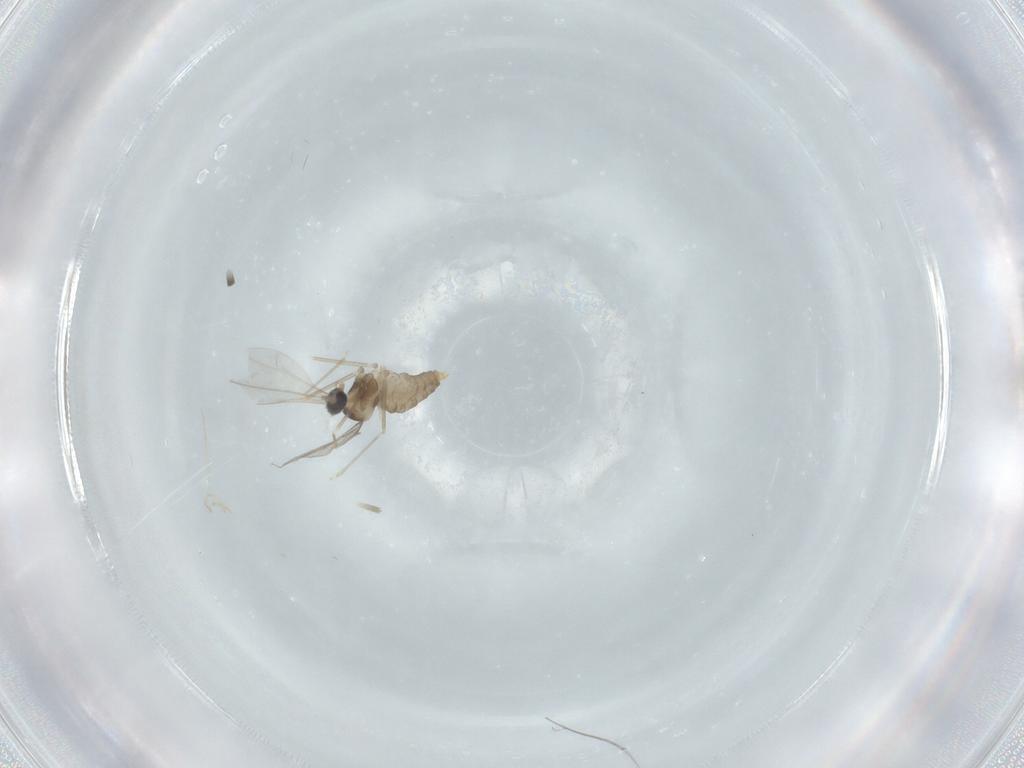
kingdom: Animalia
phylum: Arthropoda
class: Insecta
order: Diptera
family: Cecidomyiidae
